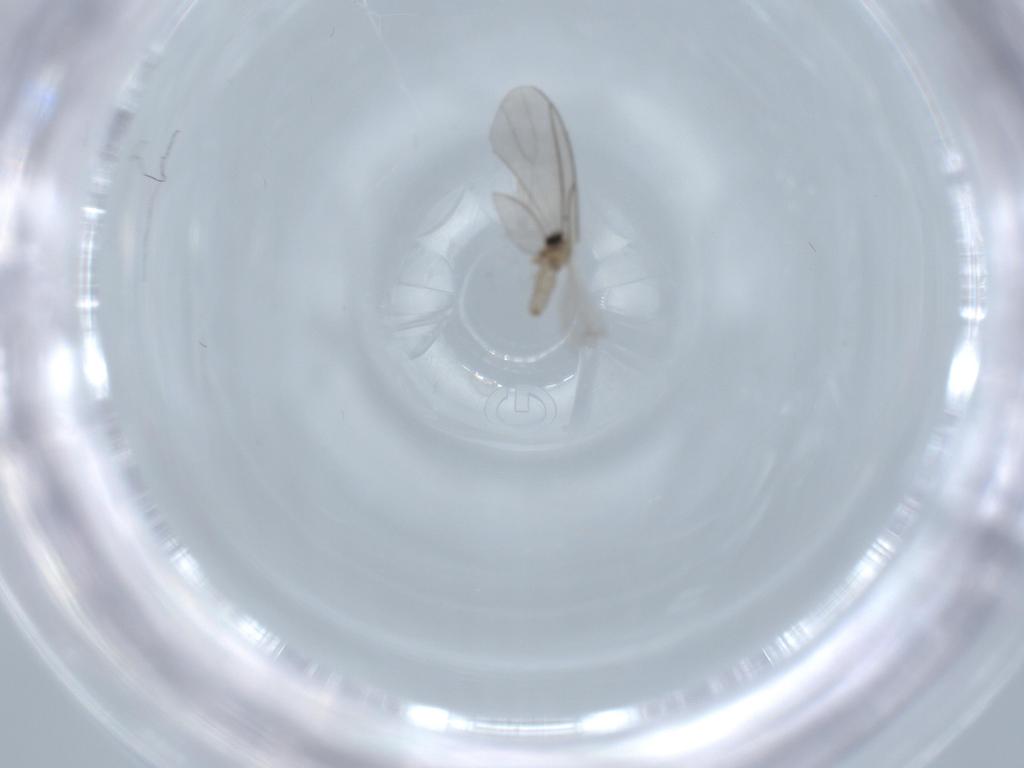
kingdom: Animalia
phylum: Arthropoda
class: Insecta
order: Diptera
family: Cecidomyiidae
